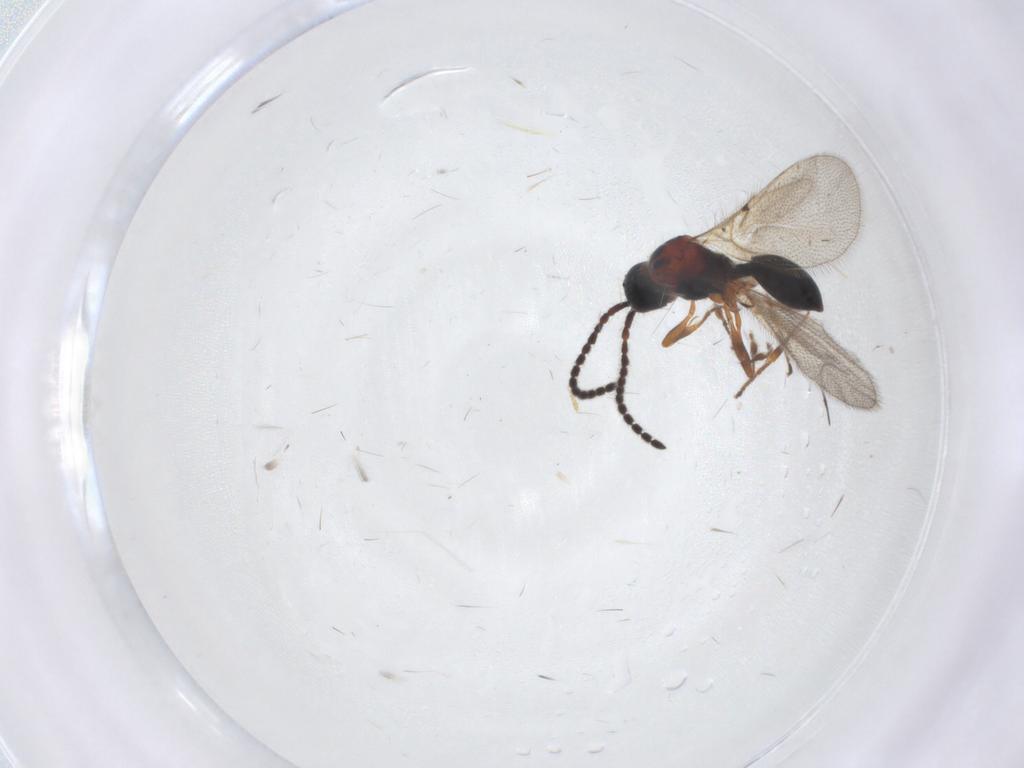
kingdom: Animalia
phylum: Arthropoda
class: Insecta
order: Hymenoptera
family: Diapriidae
